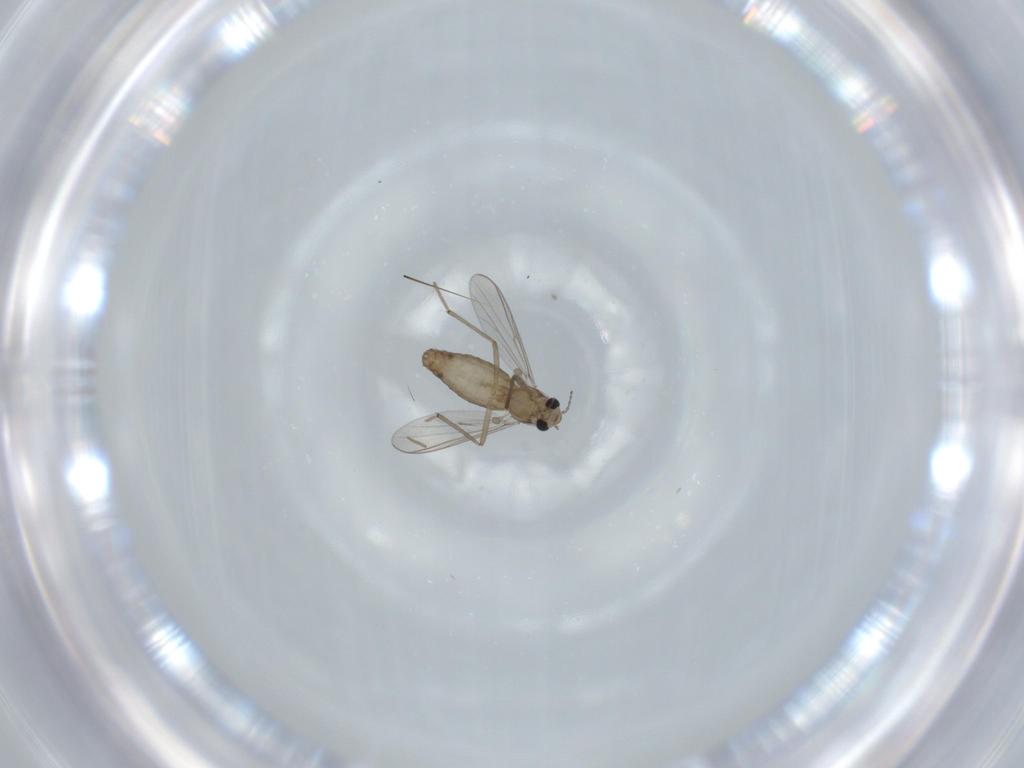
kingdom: Animalia
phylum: Arthropoda
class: Insecta
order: Diptera
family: Chironomidae
